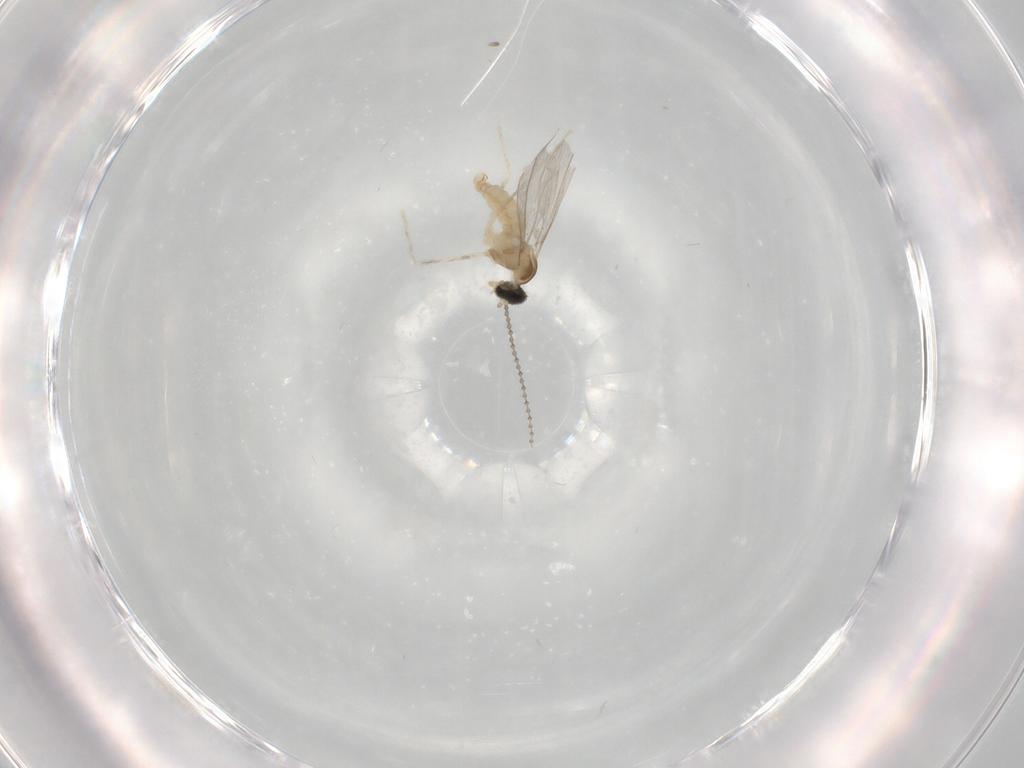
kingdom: Animalia
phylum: Arthropoda
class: Insecta
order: Diptera
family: Cecidomyiidae
